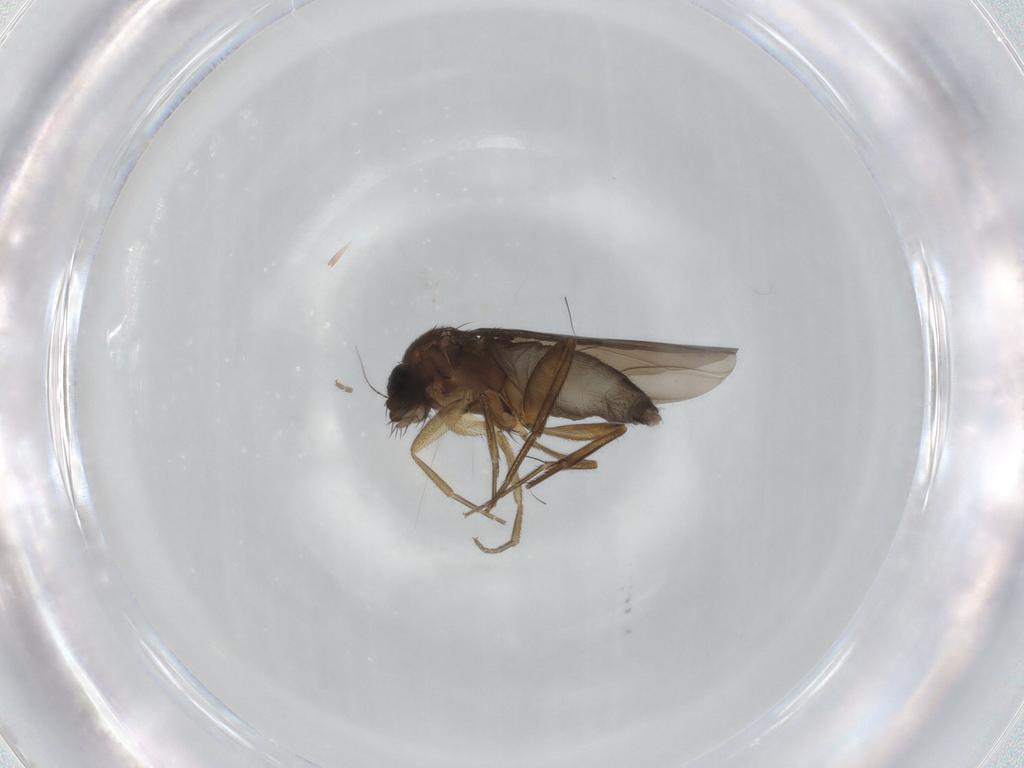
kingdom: Animalia
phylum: Arthropoda
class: Insecta
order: Diptera
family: Phoridae
